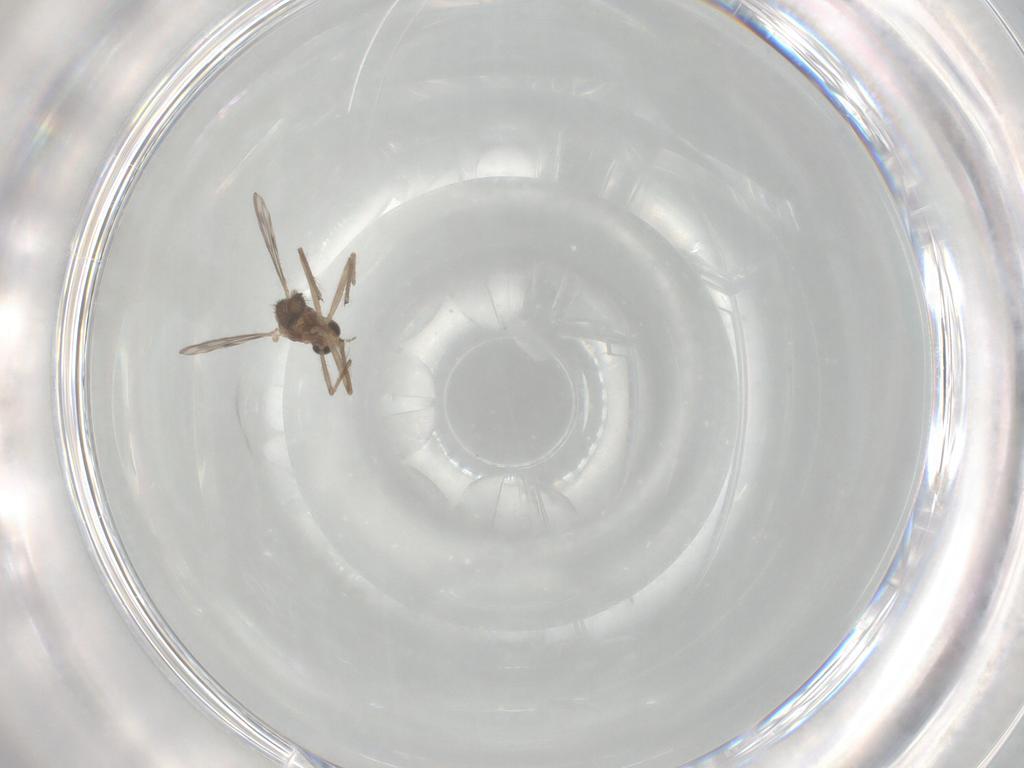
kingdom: Animalia
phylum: Arthropoda
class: Insecta
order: Diptera
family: Chironomidae
